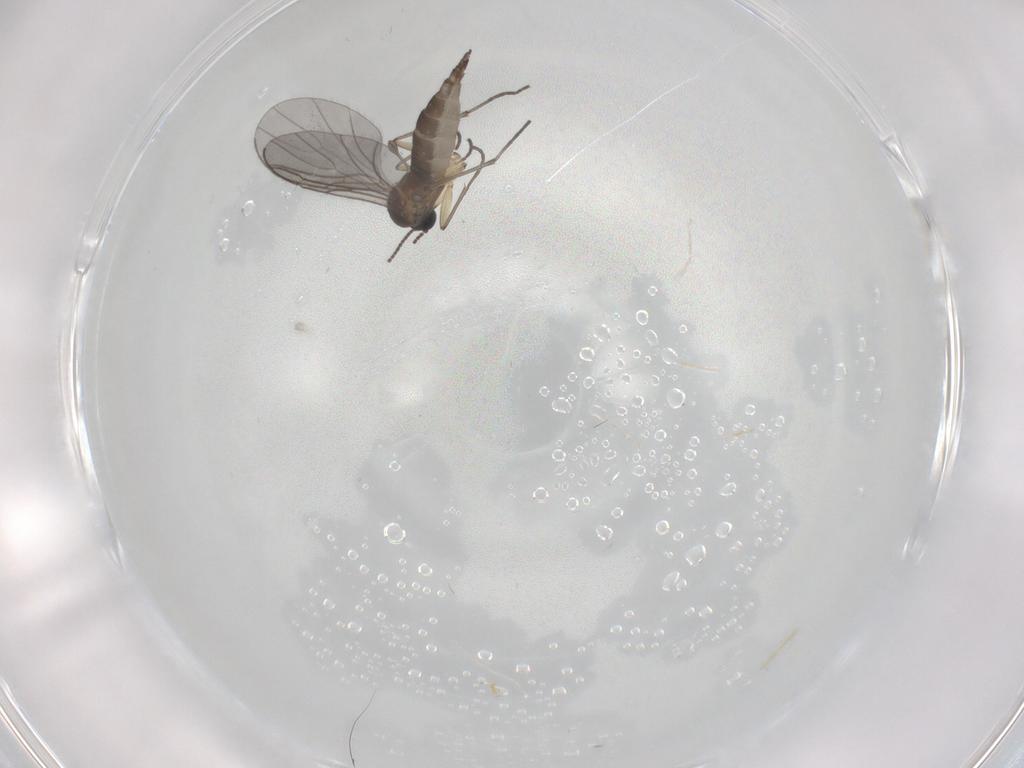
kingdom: Animalia
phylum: Arthropoda
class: Insecta
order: Diptera
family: Sciaridae
